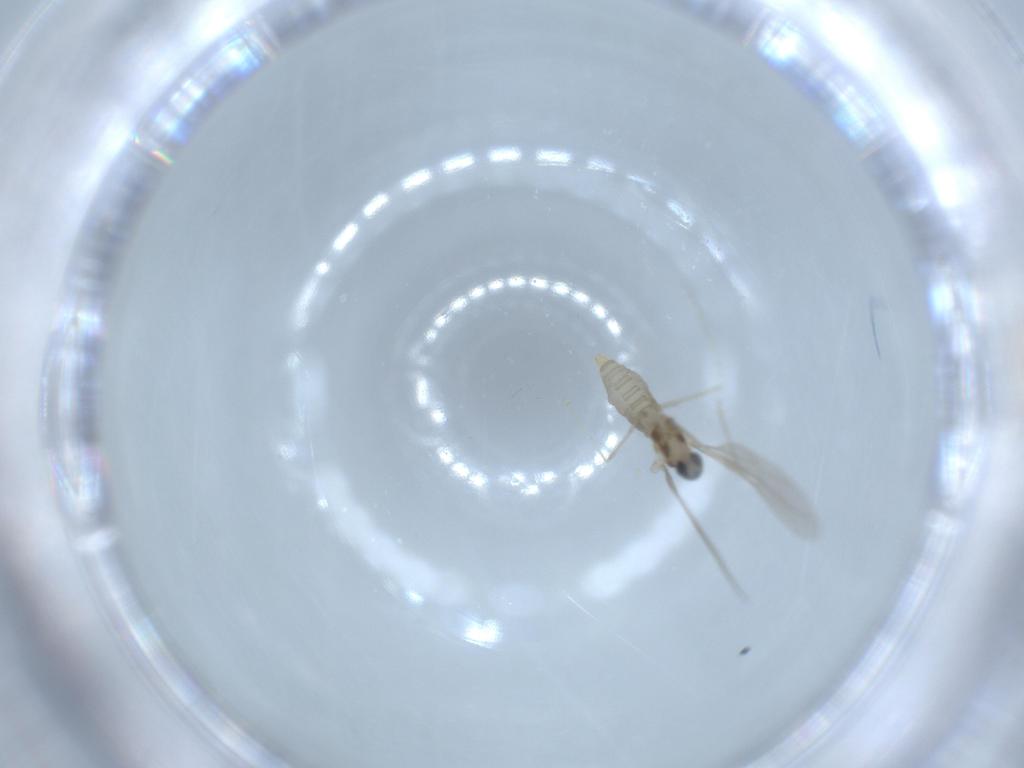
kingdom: Animalia
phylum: Arthropoda
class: Insecta
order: Diptera
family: Cecidomyiidae
